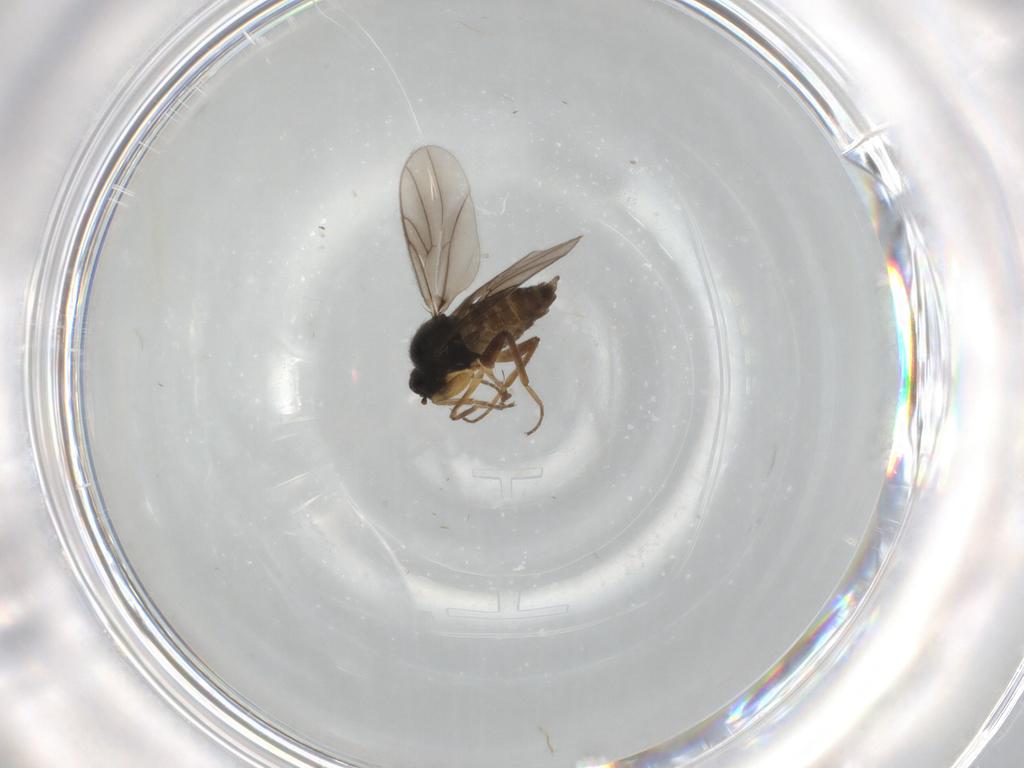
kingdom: Animalia
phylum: Arthropoda
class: Insecta
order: Diptera
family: Hybotidae
